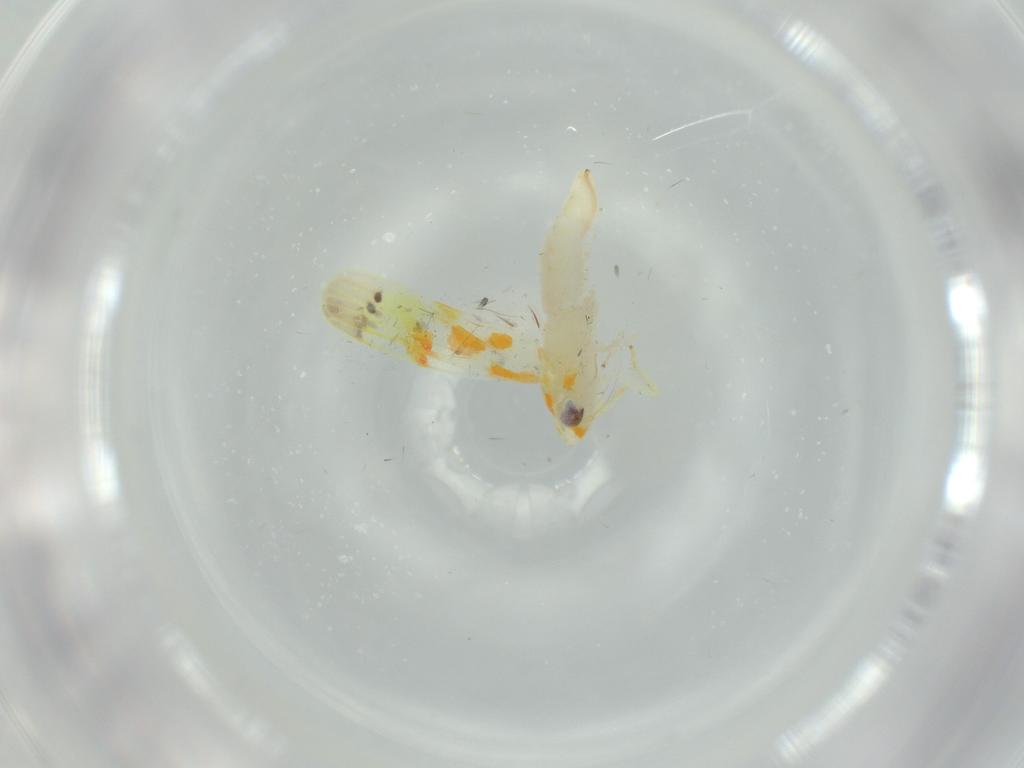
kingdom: Animalia
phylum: Arthropoda
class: Insecta
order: Hemiptera
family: Cicadellidae
